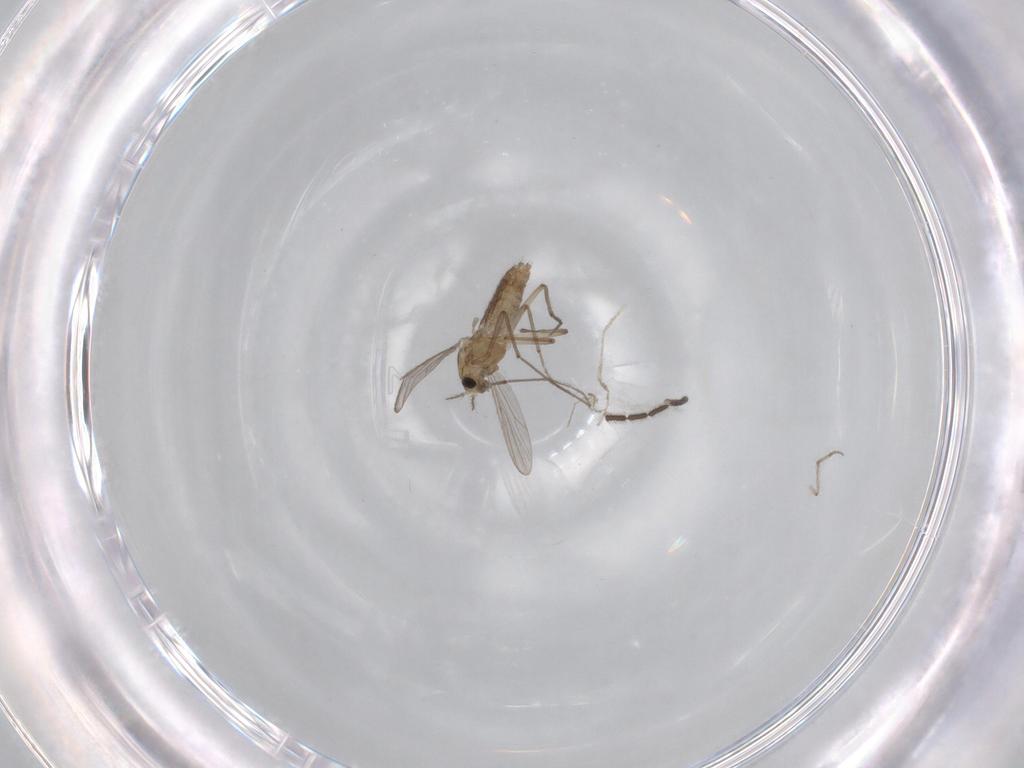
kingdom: Animalia
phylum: Arthropoda
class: Insecta
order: Diptera
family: Chironomidae
